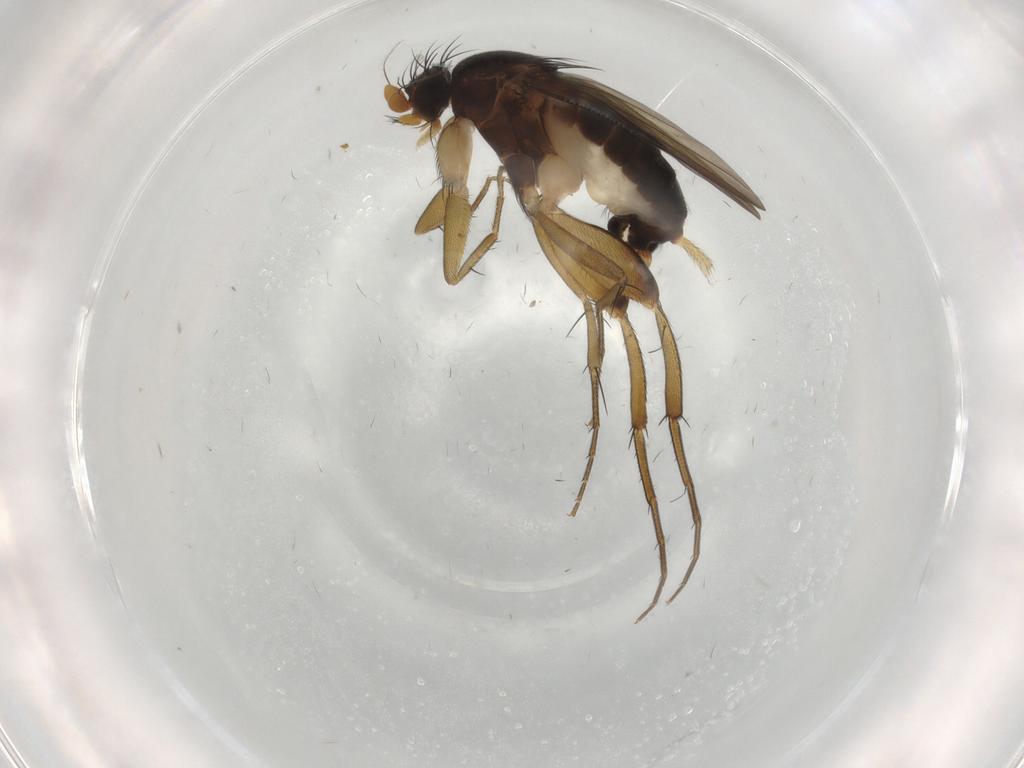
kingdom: Animalia
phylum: Arthropoda
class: Insecta
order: Diptera
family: Phoridae
